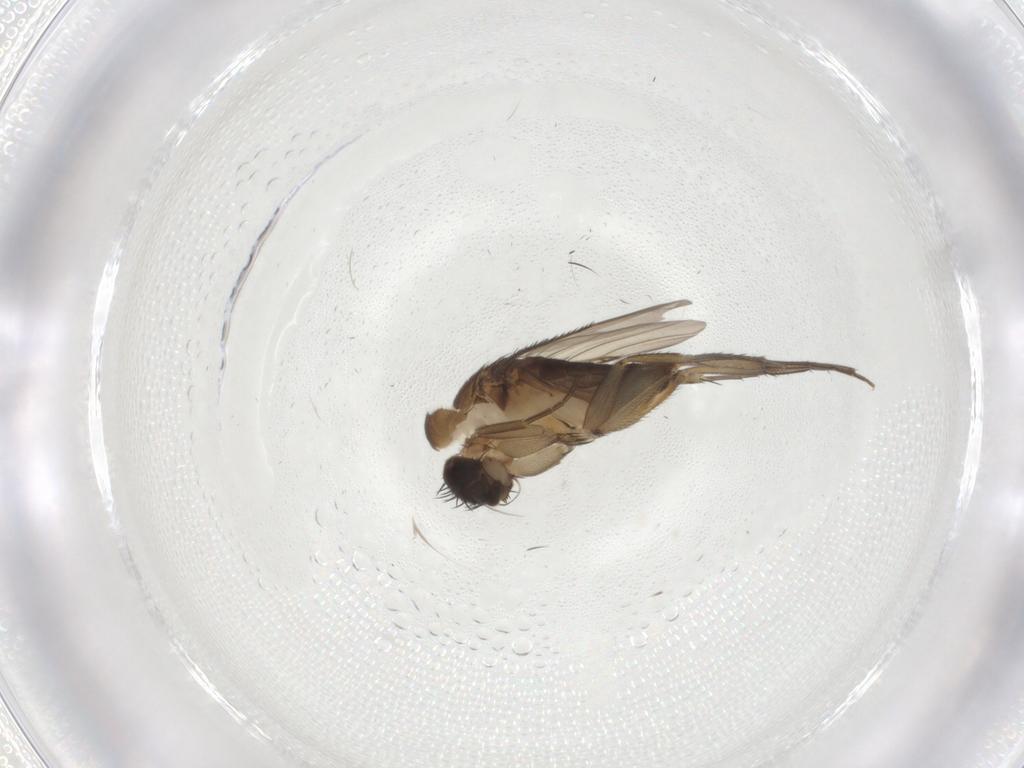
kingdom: Animalia
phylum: Arthropoda
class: Insecta
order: Diptera
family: Phoridae
